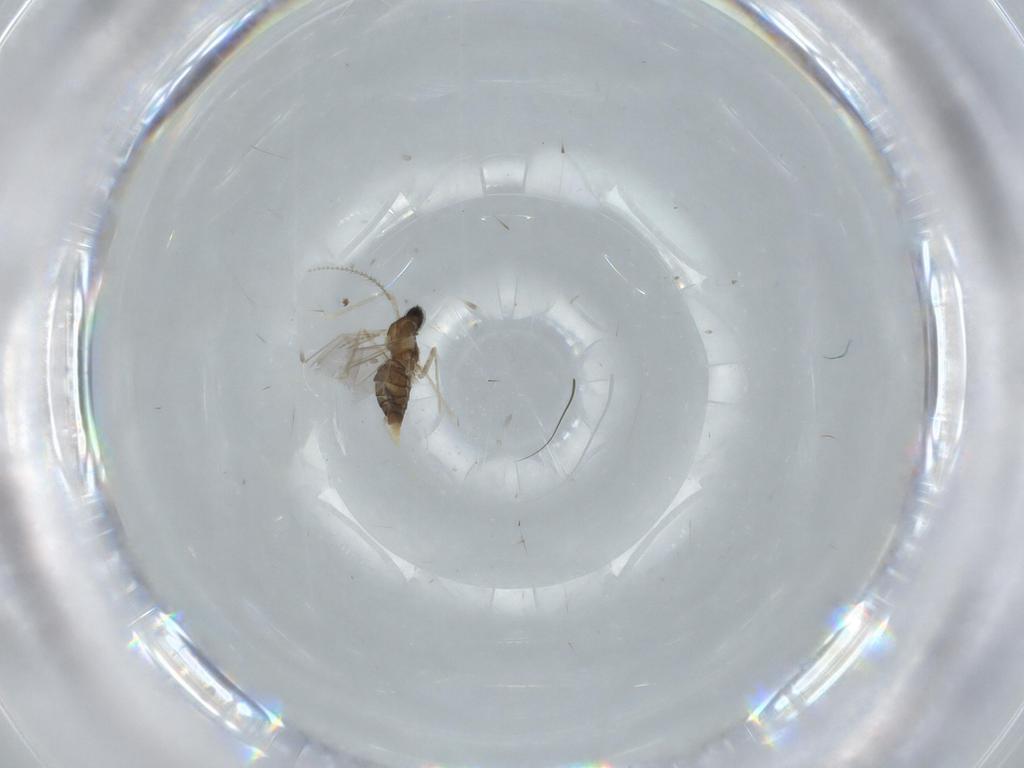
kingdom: Animalia
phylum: Arthropoda
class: Insecta
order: Diptera
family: Cecidomyiidae
